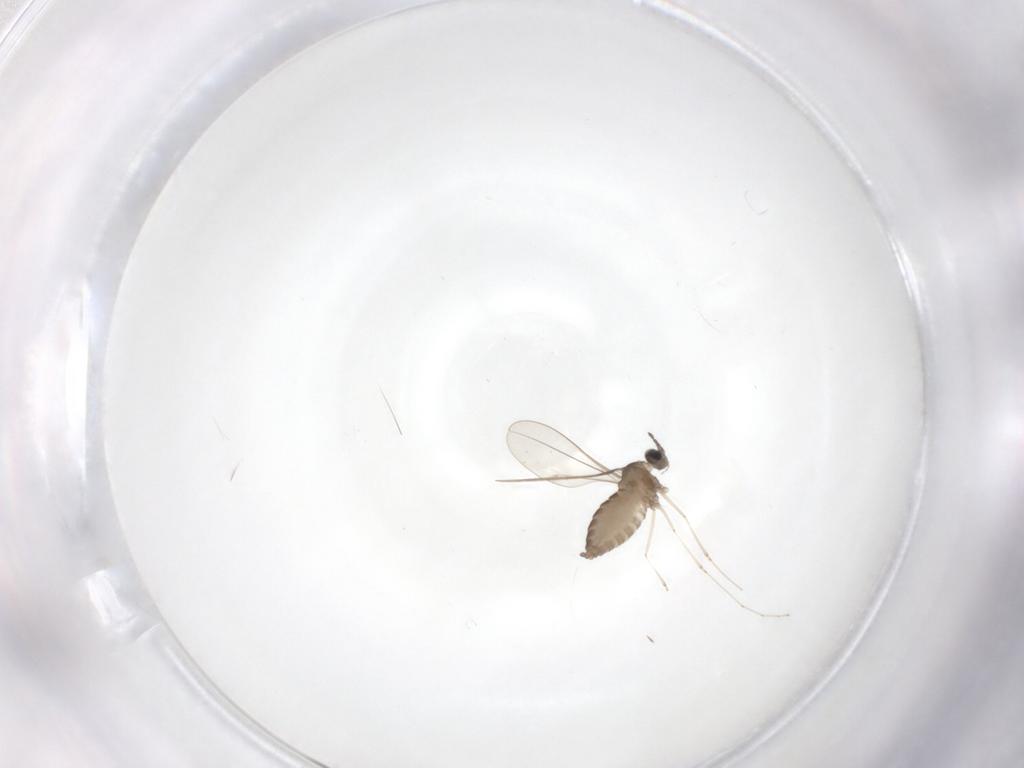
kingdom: Animalia
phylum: Arthropoda
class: Insecta
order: Diptera
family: Cecidomyiidae
